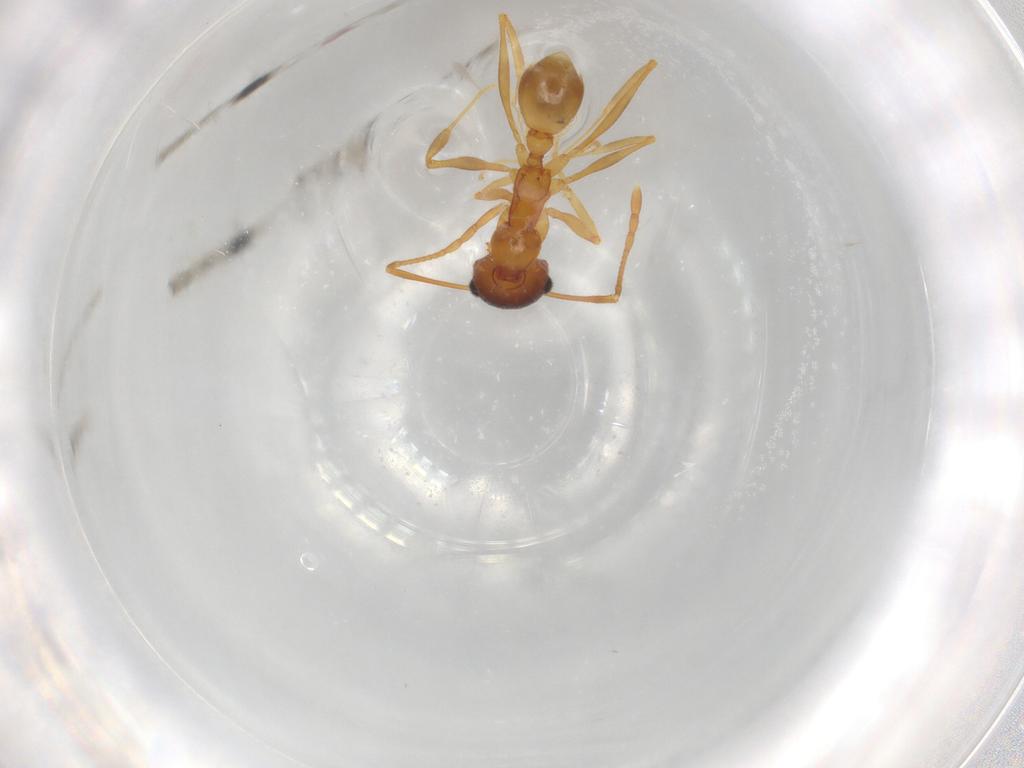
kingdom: Animalia
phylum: Arthropoda
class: Insecta
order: Hymenoptera
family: Scelionidae
